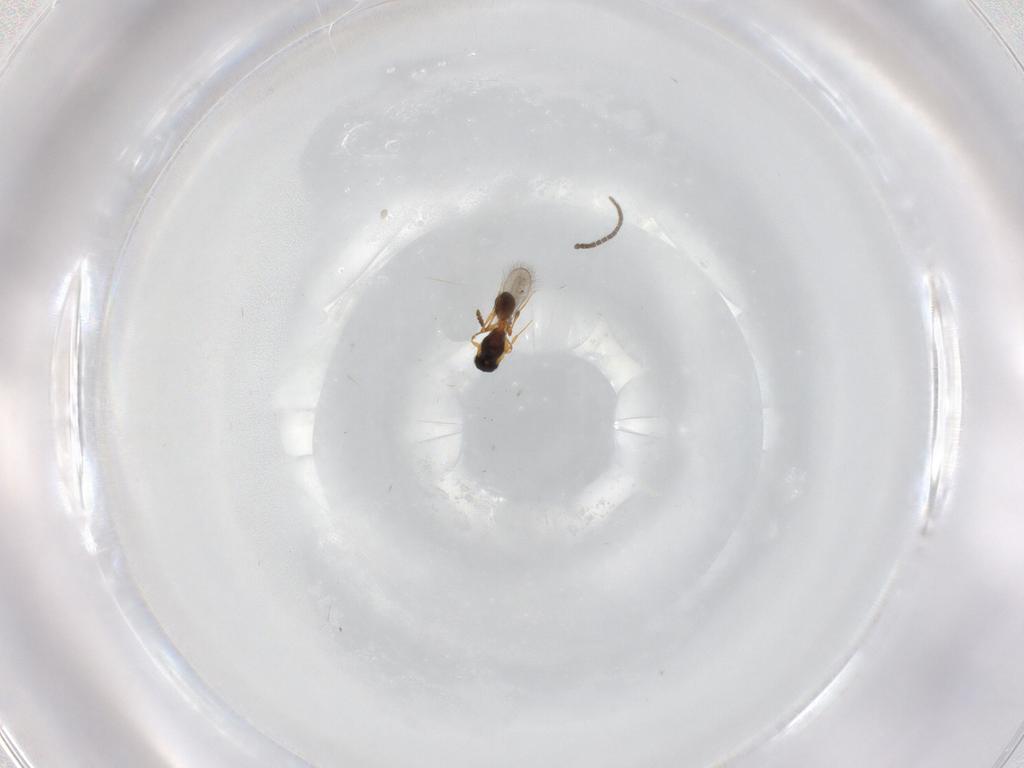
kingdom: Animalia
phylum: Arthropoda
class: Insecta
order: Hymenoptera
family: Platygastridae
